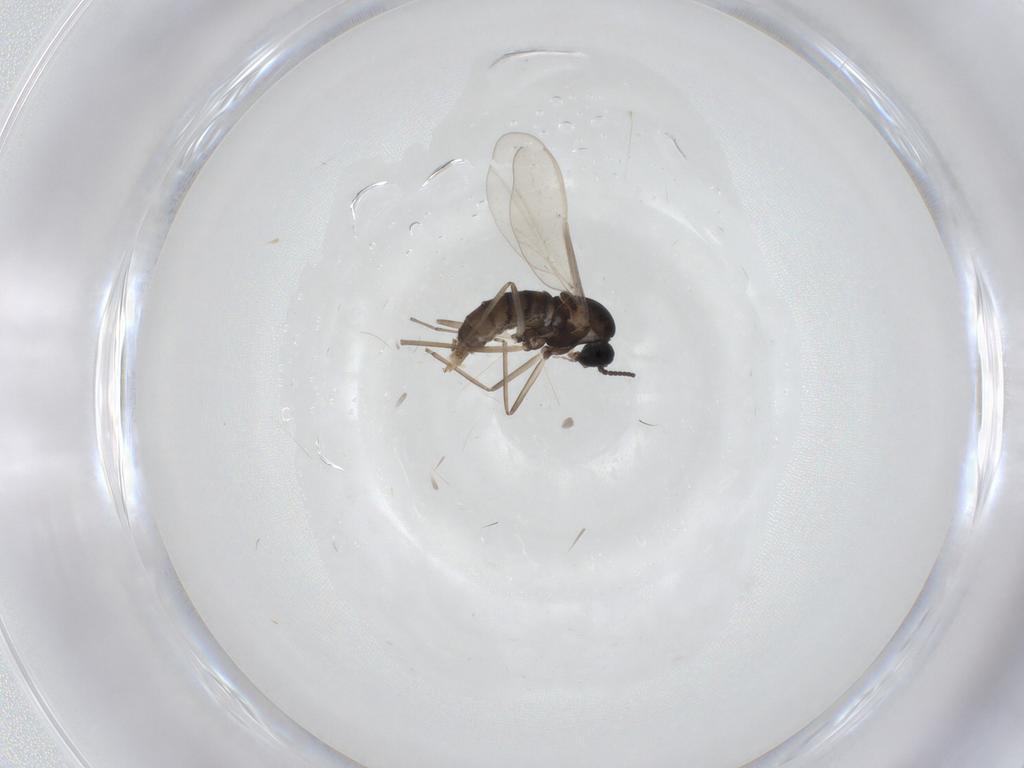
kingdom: Animalia
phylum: Arthropoda
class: Insecta
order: Diptera
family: Cecidomyiidae
